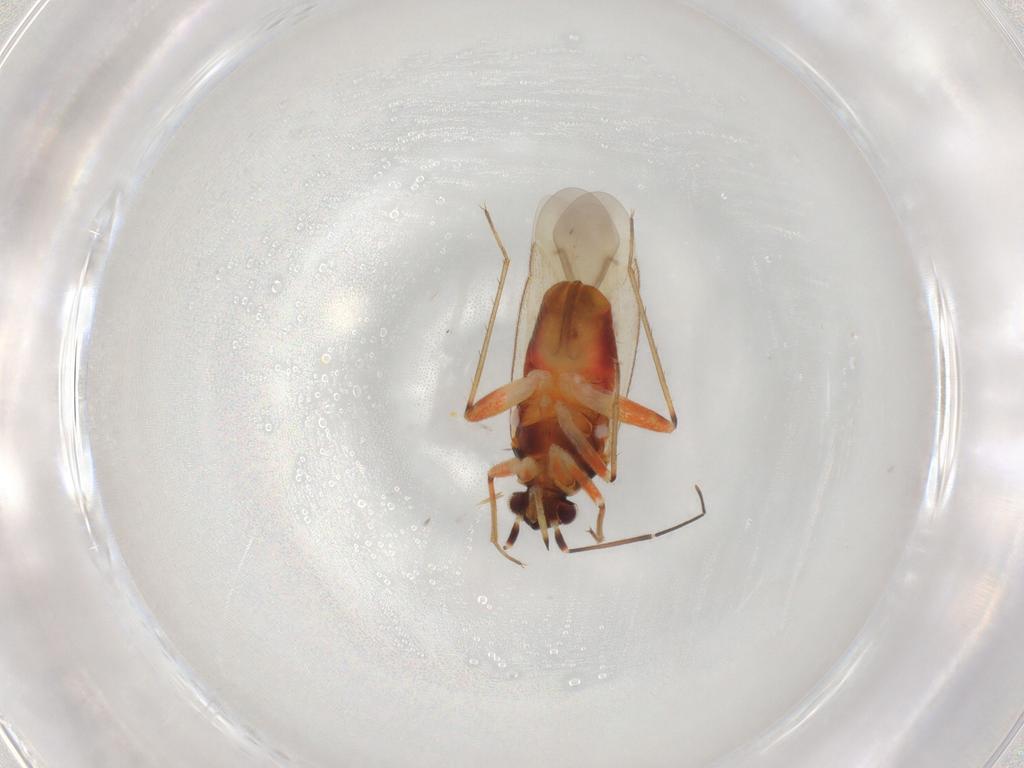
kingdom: Animalia
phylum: Arthropoda
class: Insecta
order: Hemiptera
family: Miridae
